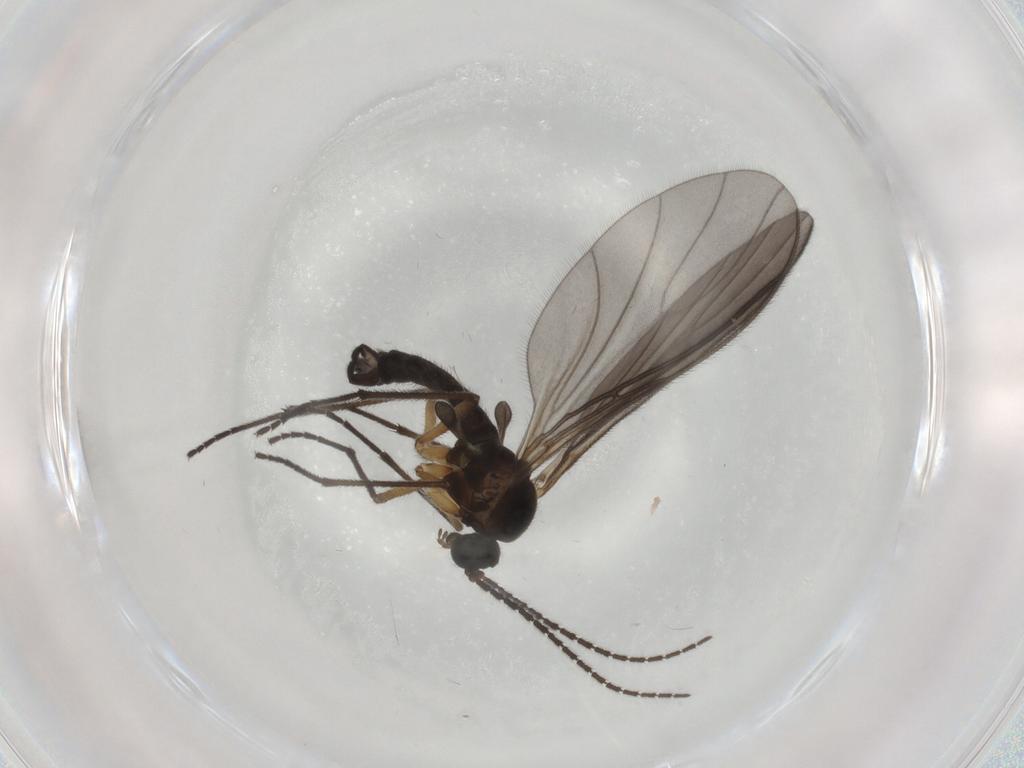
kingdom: Animalia
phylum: Arthropoda
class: Insecta
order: Diptera
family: Sciaridae
